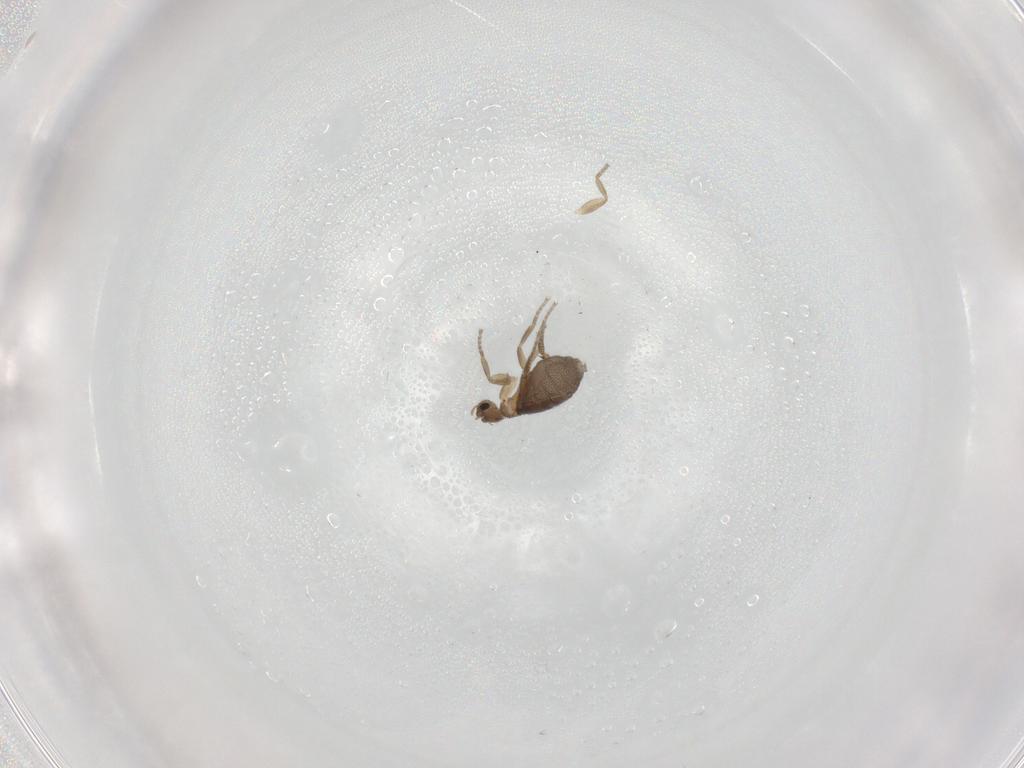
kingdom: Animalia
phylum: Arthropoda
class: Insecta
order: Diptera
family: Phoridae
